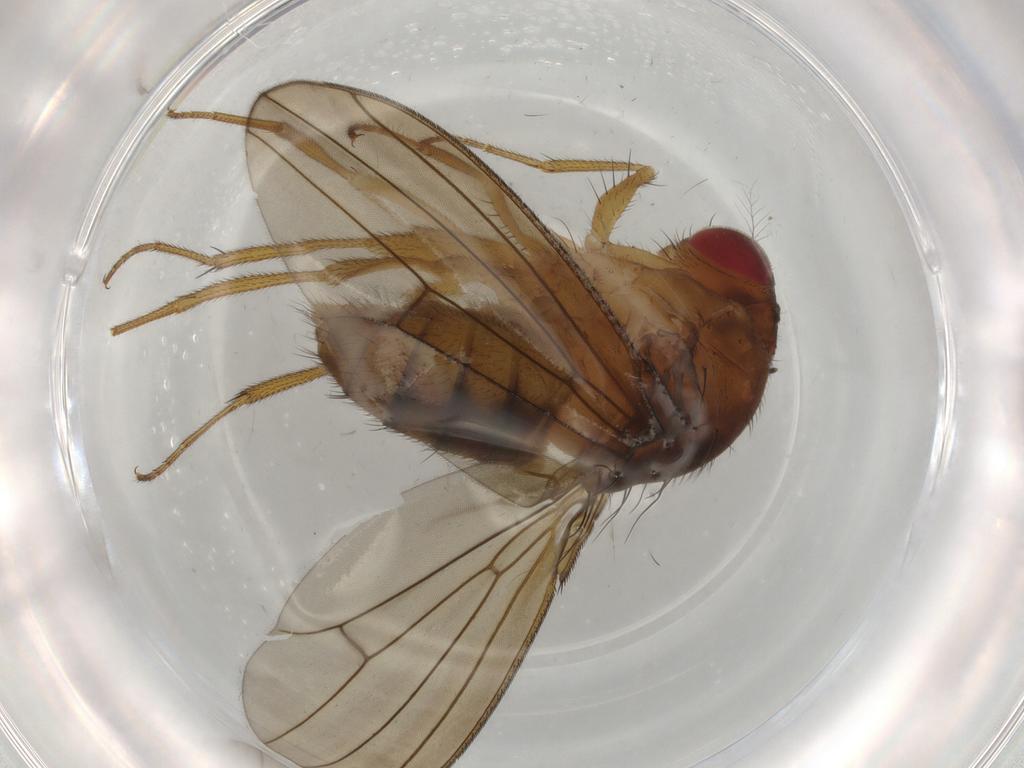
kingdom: Animalia
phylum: Arthropoda
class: Insecta
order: Diptera
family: Drosophilidae
